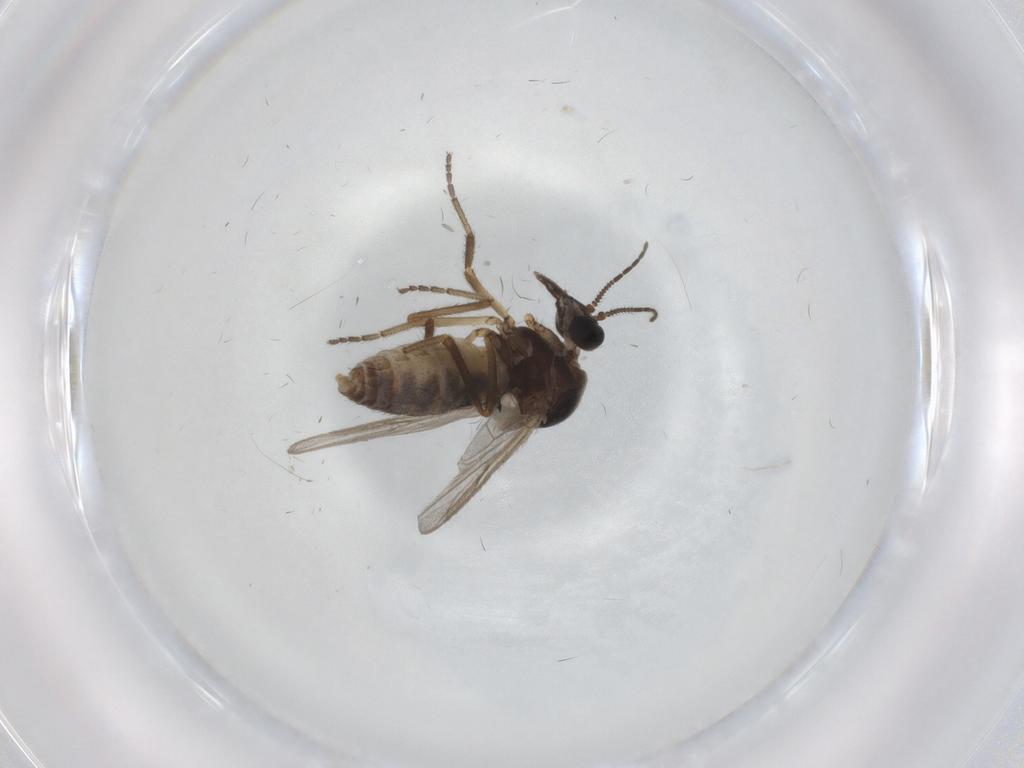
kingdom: Animalia
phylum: Arthropoda
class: Insecta
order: Diptera
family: Ceratopogonidae
